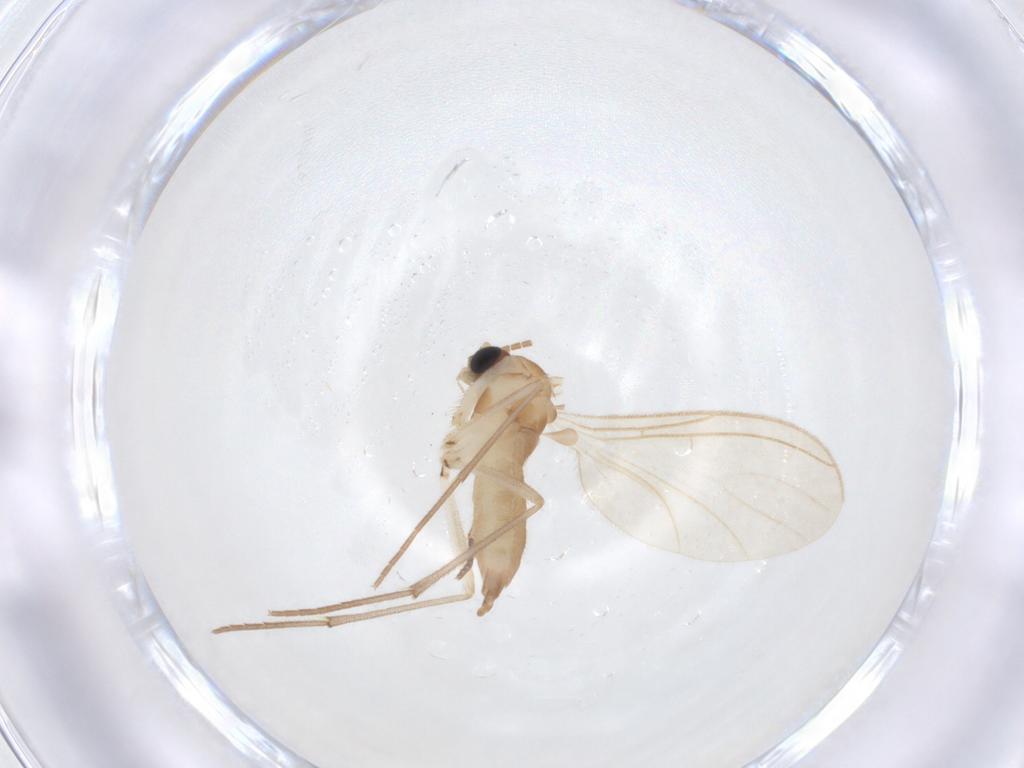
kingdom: Animalia
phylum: Arthropoda
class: Insecta
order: Diptera
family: Sciaridae
